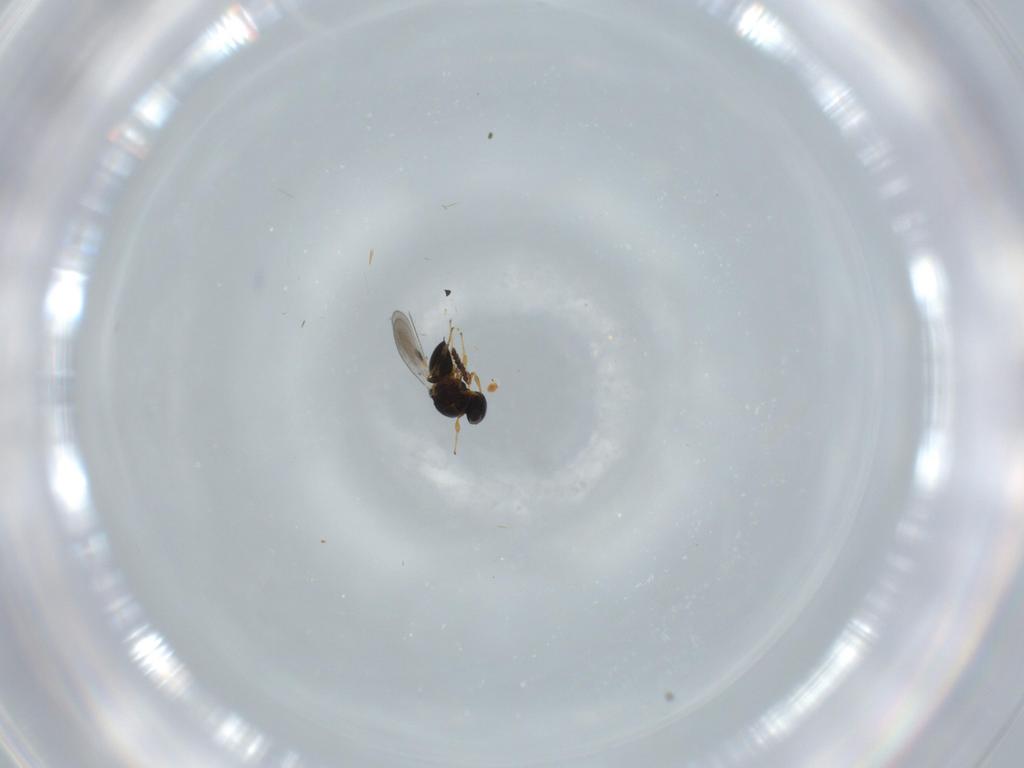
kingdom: Animalia
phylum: Arthropoda
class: Insecta
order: Hymenoptera
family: Platygastridae
